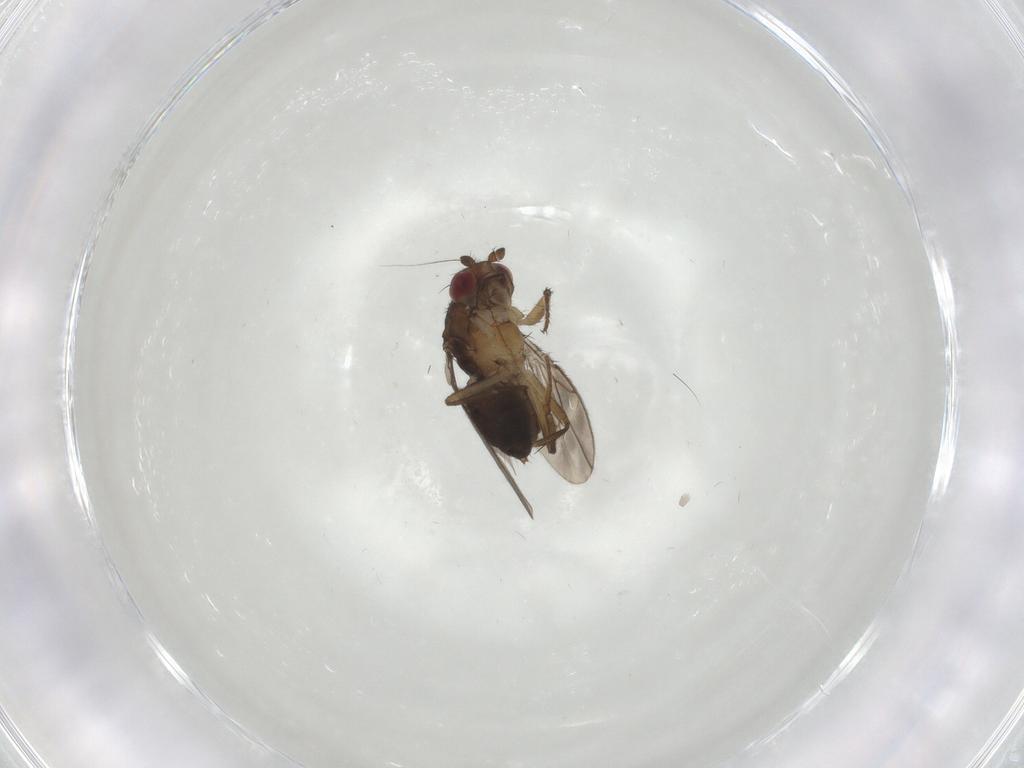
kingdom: Animalia
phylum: Arthropoda
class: Insecta
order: Diptera
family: Sphaeroceridae
